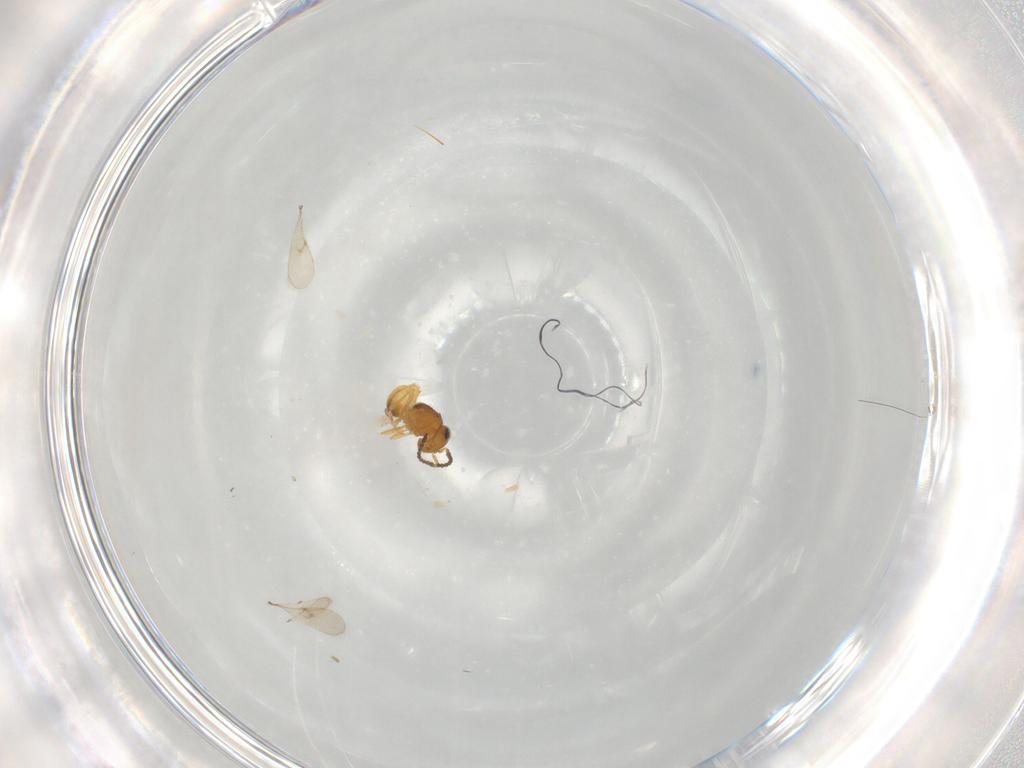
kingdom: Animalia
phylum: Arthropoda
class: Insecta
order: Hymenoptera
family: Scelionidae
